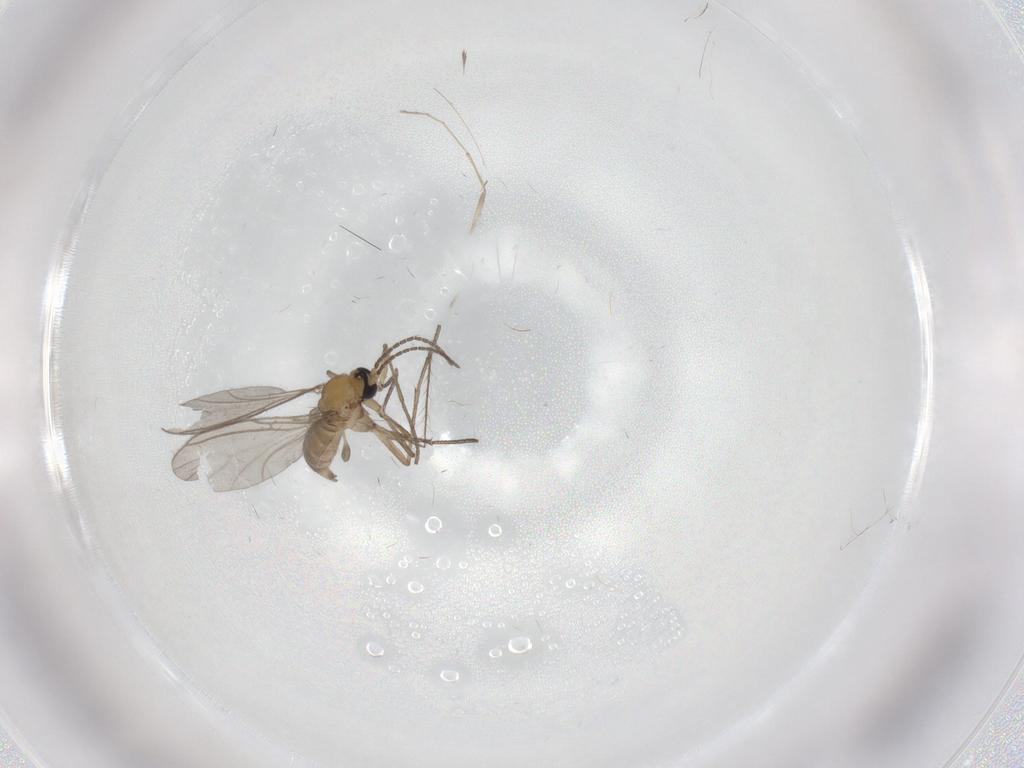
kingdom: Animalia
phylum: Arthropoda
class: Insecta
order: Diptera
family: Sciaridae
